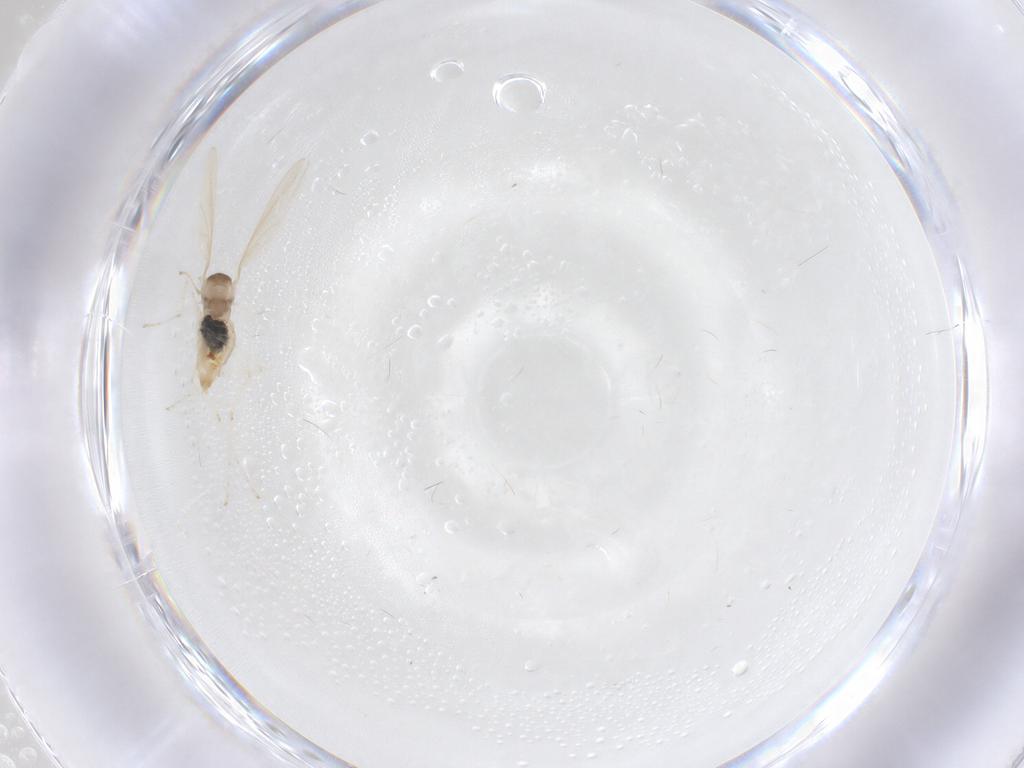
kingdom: Animalia
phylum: Arthropoda
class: Insecta
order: Diptera
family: Cecidomyiidae
